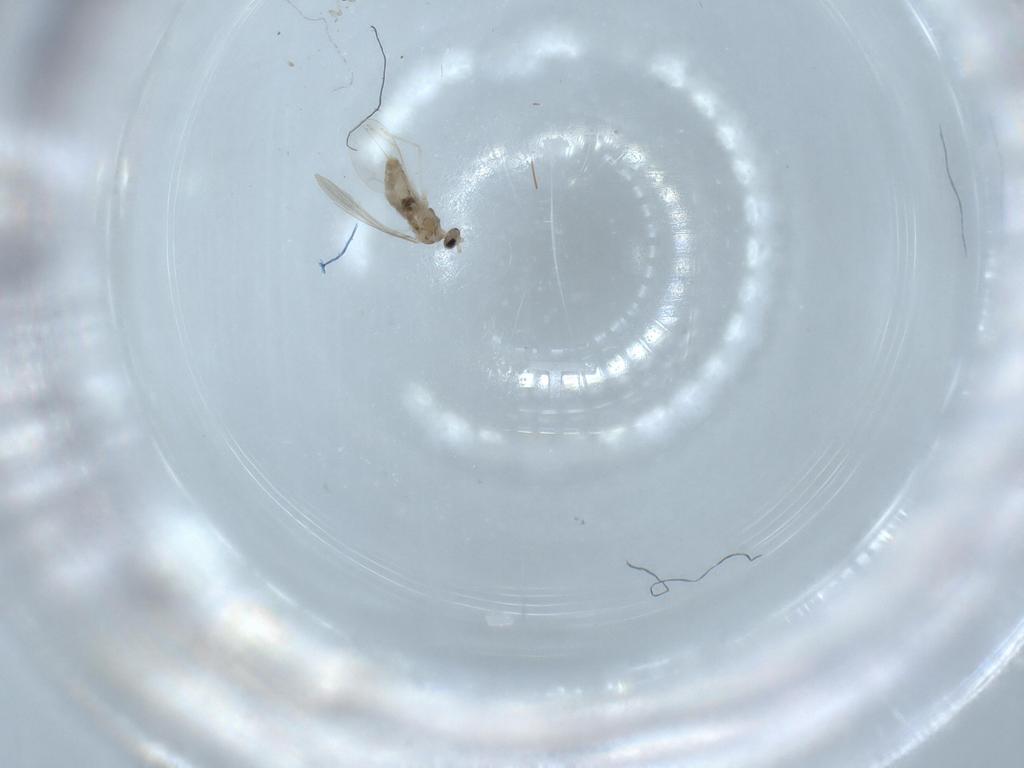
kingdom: Animalia
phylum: Arthropoda
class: Insecta
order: Diptera
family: Cecidomyiidae
